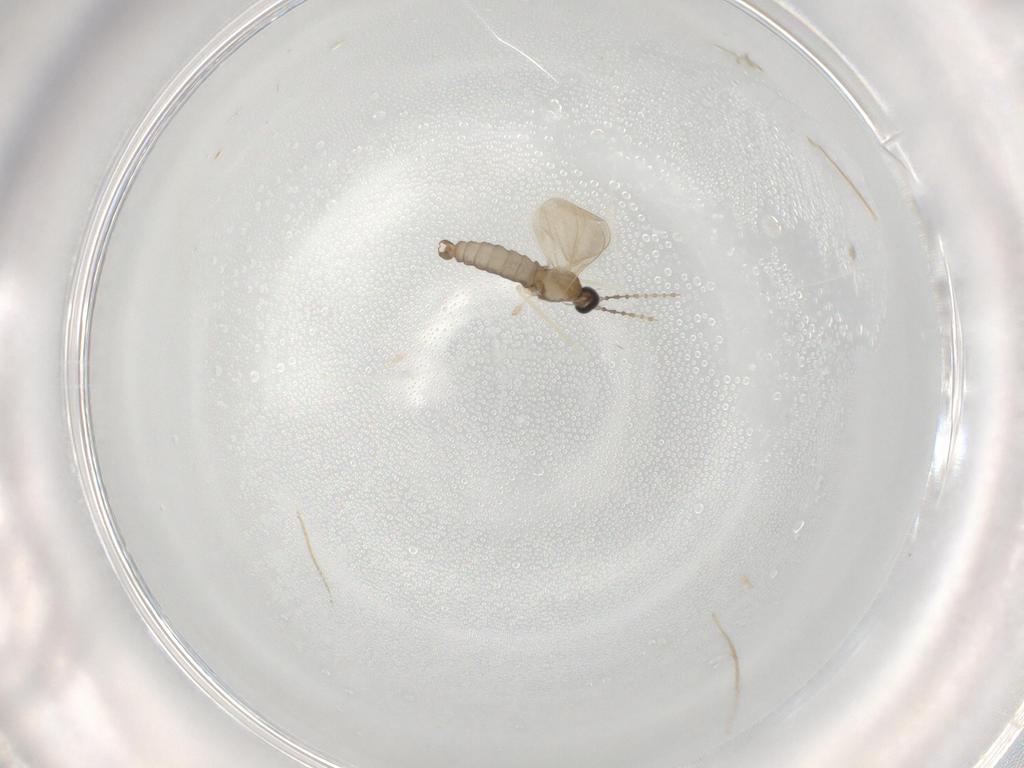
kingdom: Animalia
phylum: Arthropoda
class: Insecta
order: Diptera
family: Cecidomyiidae
